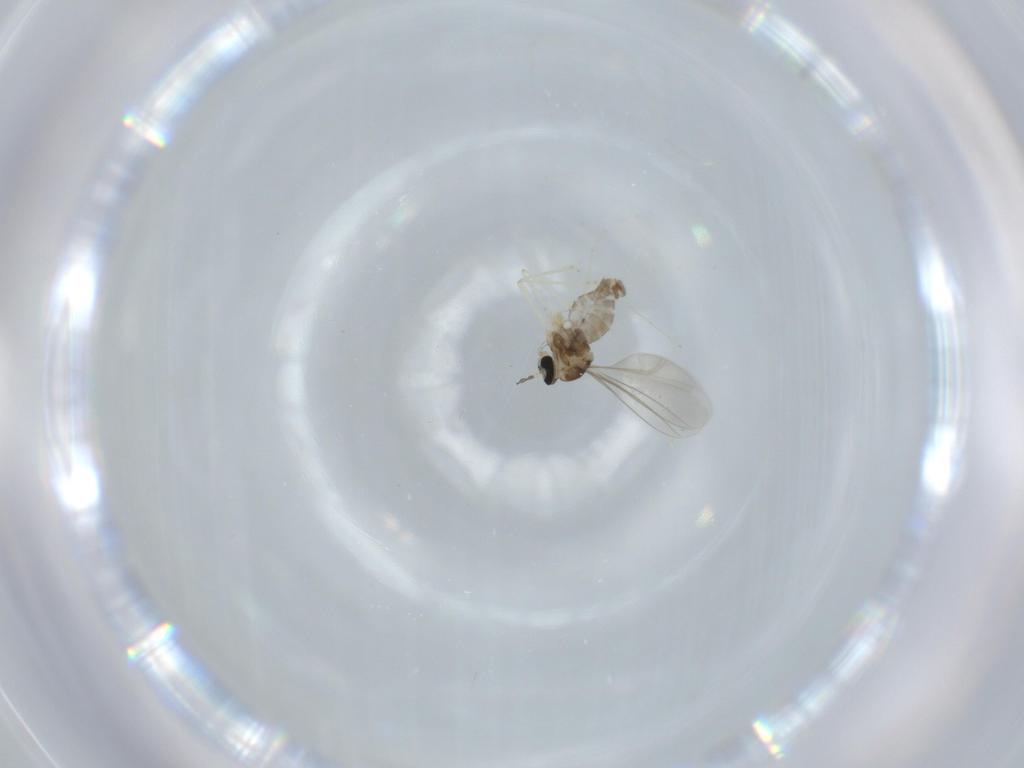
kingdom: Animalia
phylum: Arthropoda
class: Insecta
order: Diptera
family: Cecidomyiidae
